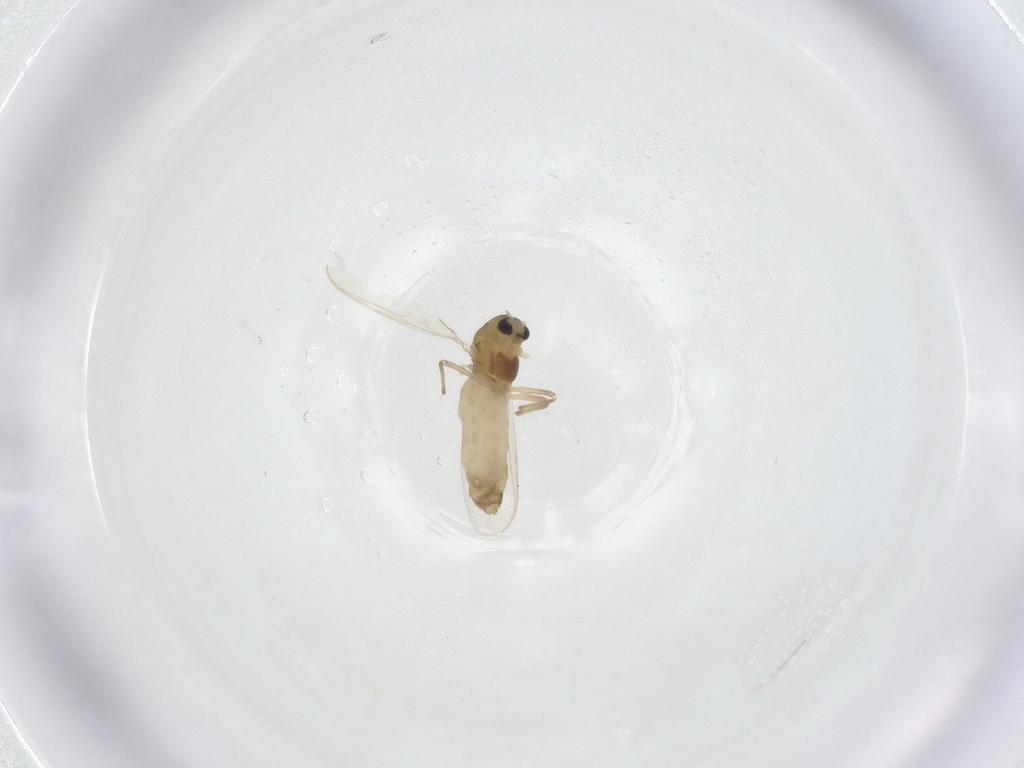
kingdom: Animalia
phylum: Arthropoda
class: Insecta
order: Diptera
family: Chironomidae
